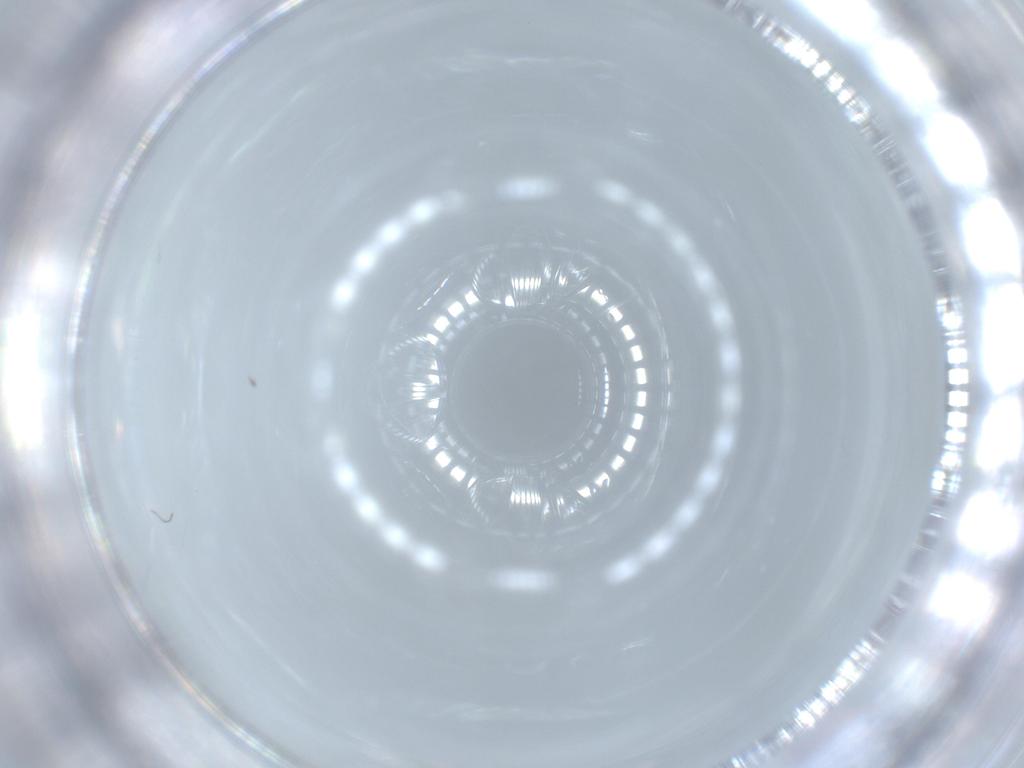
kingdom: Animalia
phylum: Arthropoda
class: Insecta
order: Diptera
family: Cecidomyiidae
